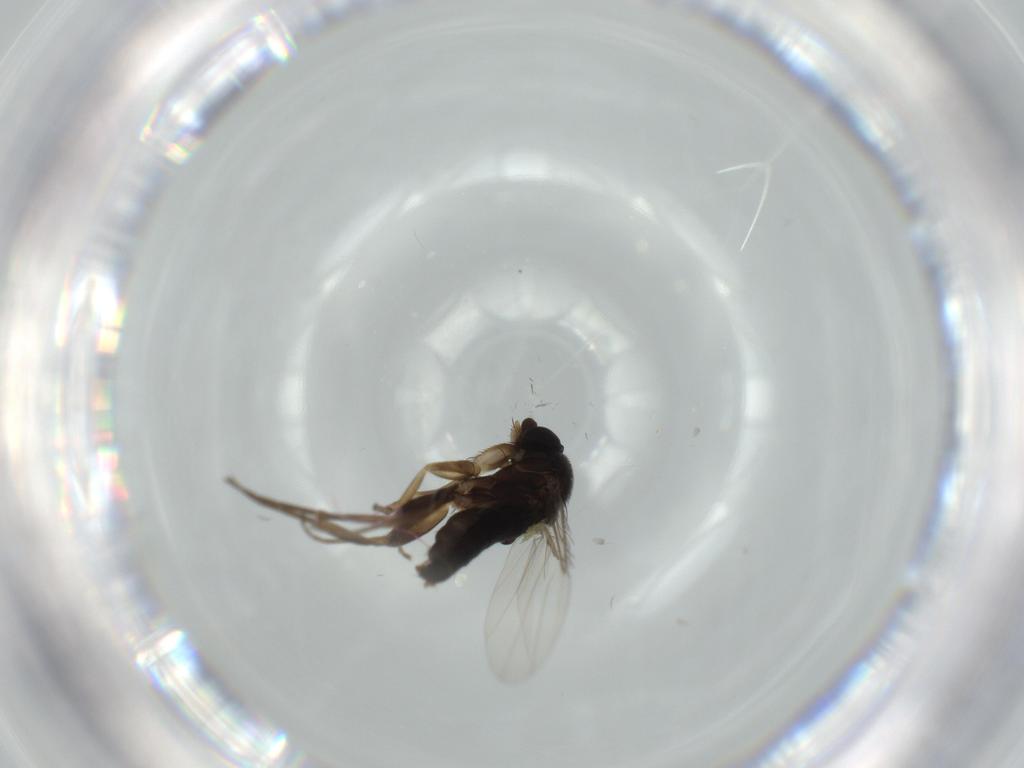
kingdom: Animalia
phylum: Arthropoda
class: Insecta
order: Diptera
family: Phoridae
